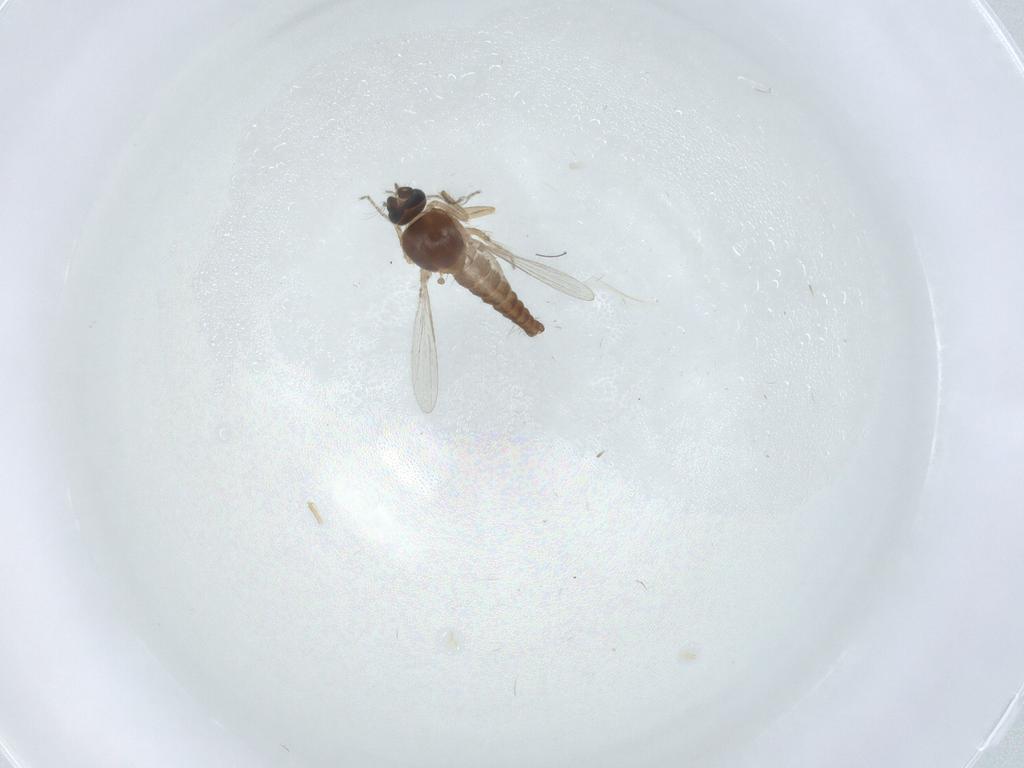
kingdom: Animalia
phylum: Arthropoda
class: Insecta
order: Diptera
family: Ceratopogonidae
